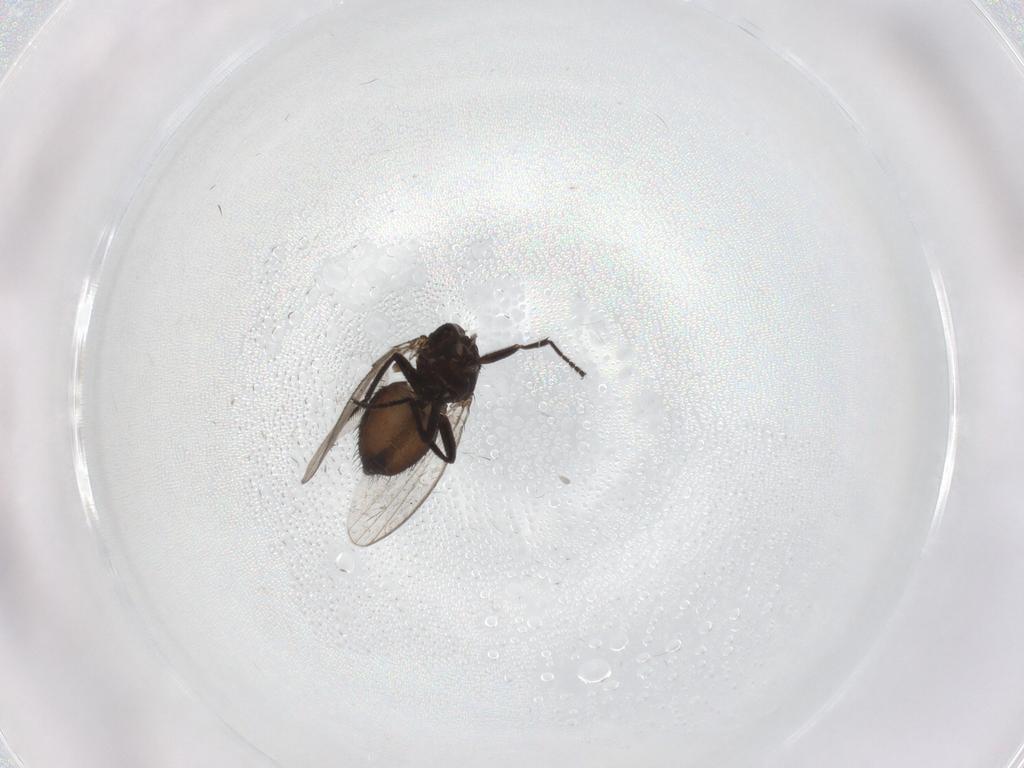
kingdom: Animalia
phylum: Arthropoda
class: Insecta
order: Diptera
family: Milichiidae
